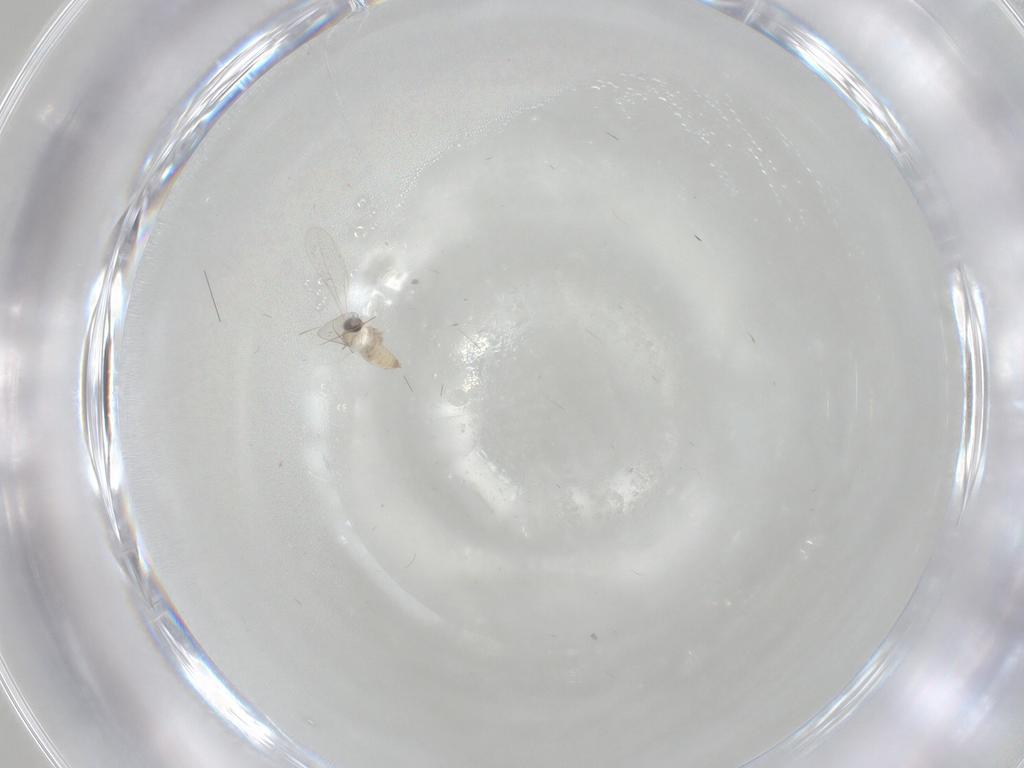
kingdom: Animalia
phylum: Arthropoda
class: Insecta
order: Diptera
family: Cecidomyiidae
